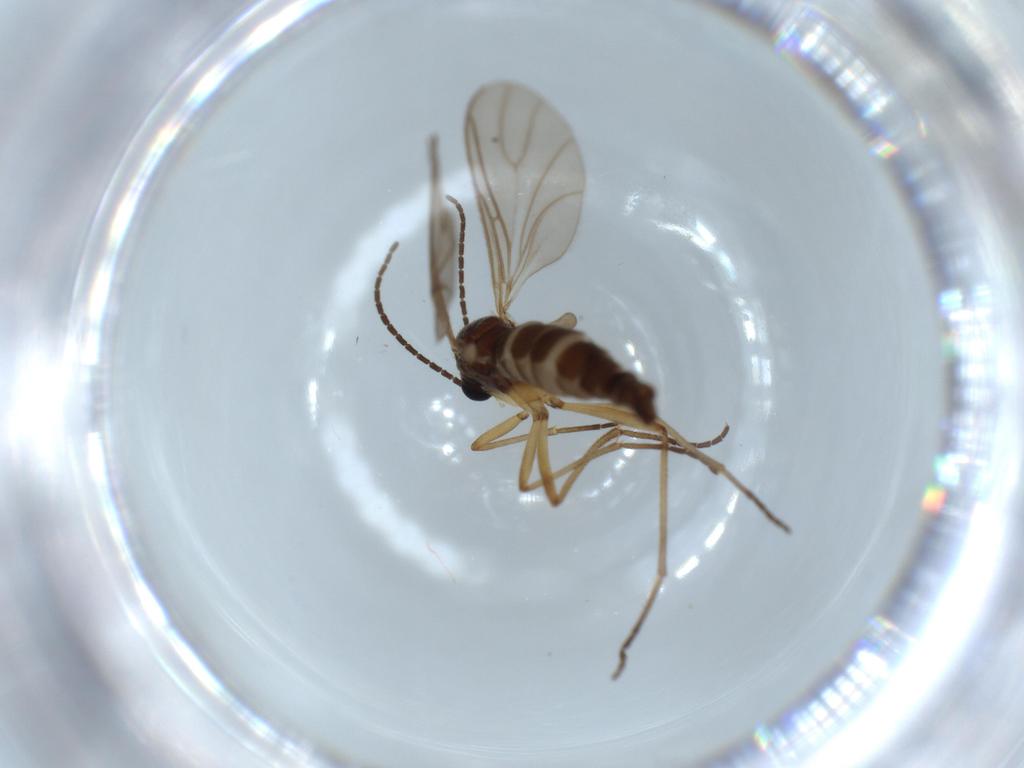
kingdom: Animalia
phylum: Arthropoda
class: Insecta
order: Diptera
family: Sciaridae
